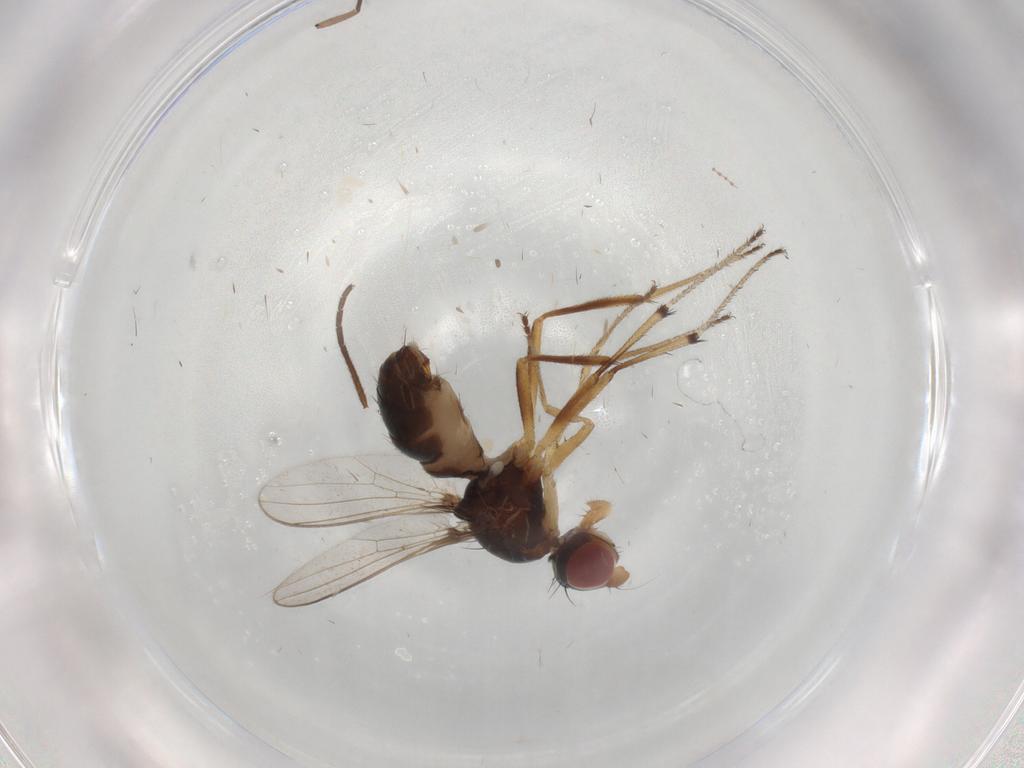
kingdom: Animalia
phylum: Arthropoda
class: Insecta
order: Diptera
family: Sepsidae
